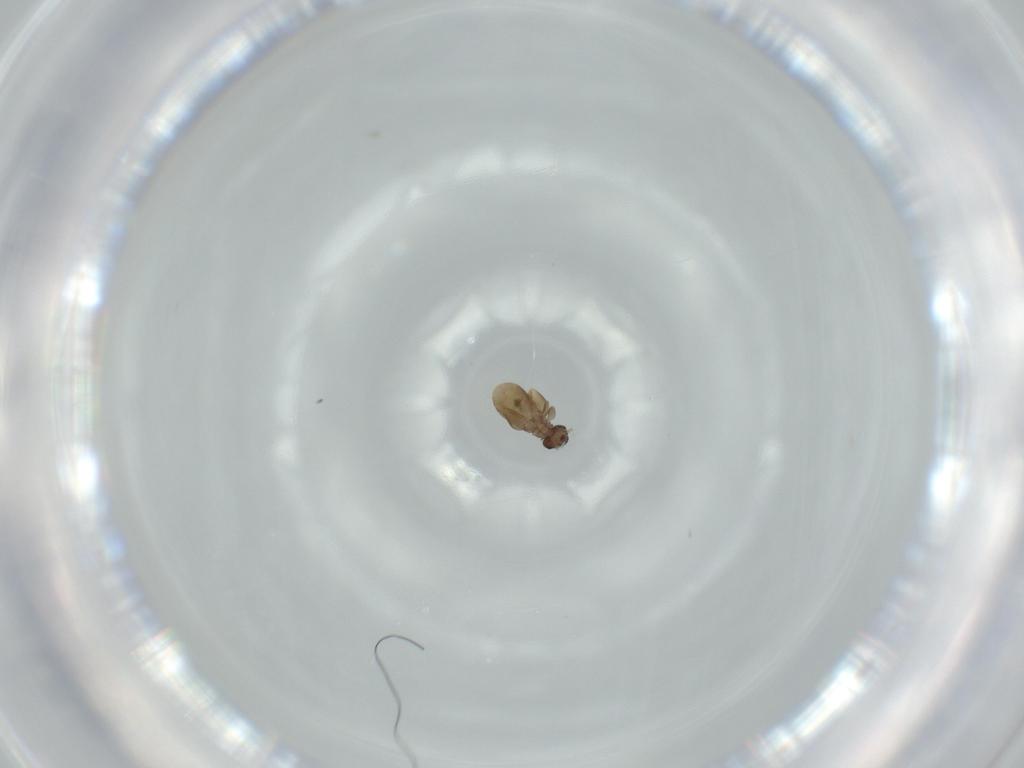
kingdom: Animalia
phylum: Arthropoda
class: Insecta
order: Psocodea
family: Liposcelididae
